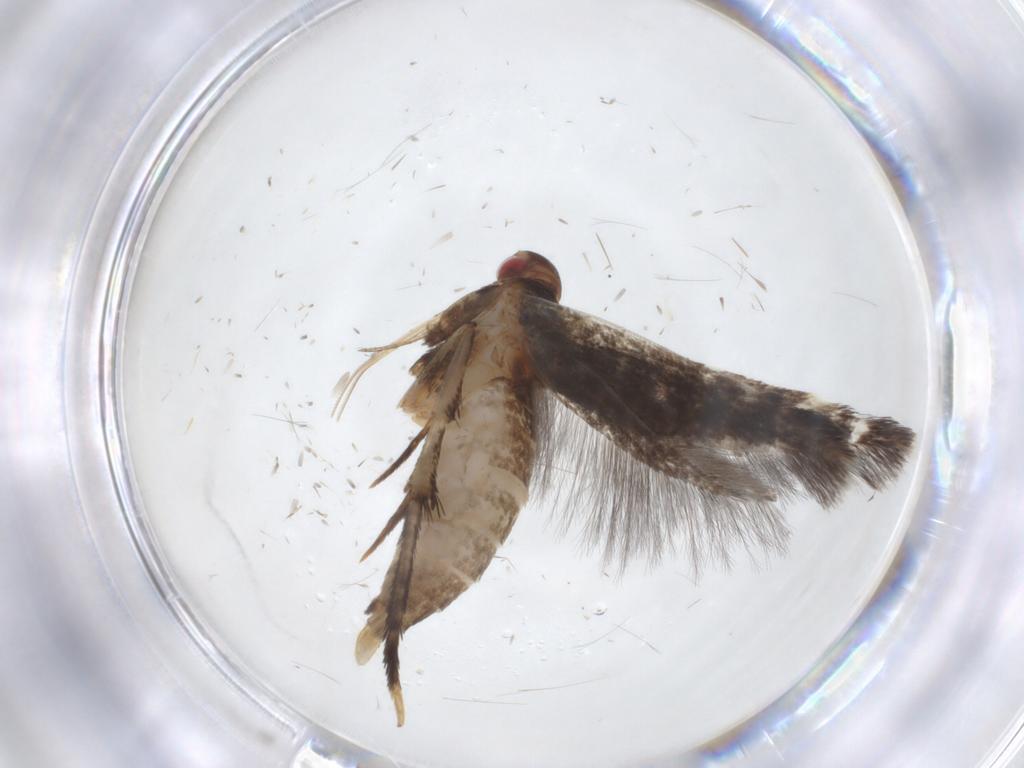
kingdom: Animalia
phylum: Arthropoda
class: Insecta
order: Lepidoptera
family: Gelechiidae
